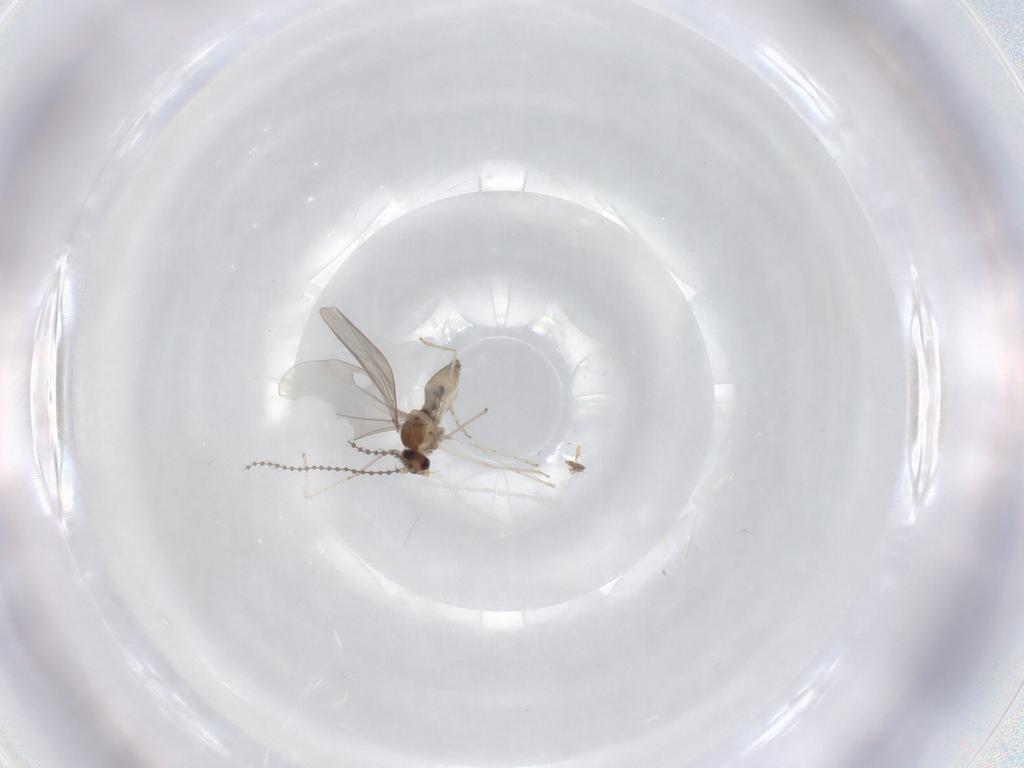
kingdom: Animalia
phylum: Arthropoda
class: Insecta
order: Diptera
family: Cecidomyiidae
